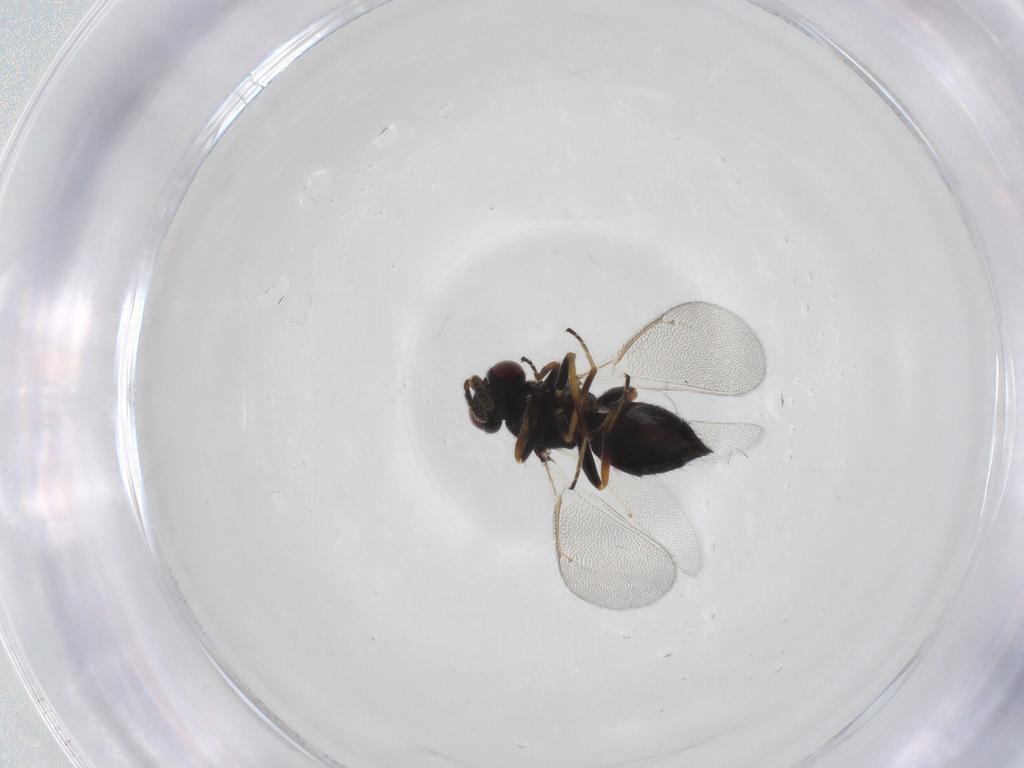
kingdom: Animalia
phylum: Arthropoda
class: Insecta
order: Hymenoptera
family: Eulophidae
